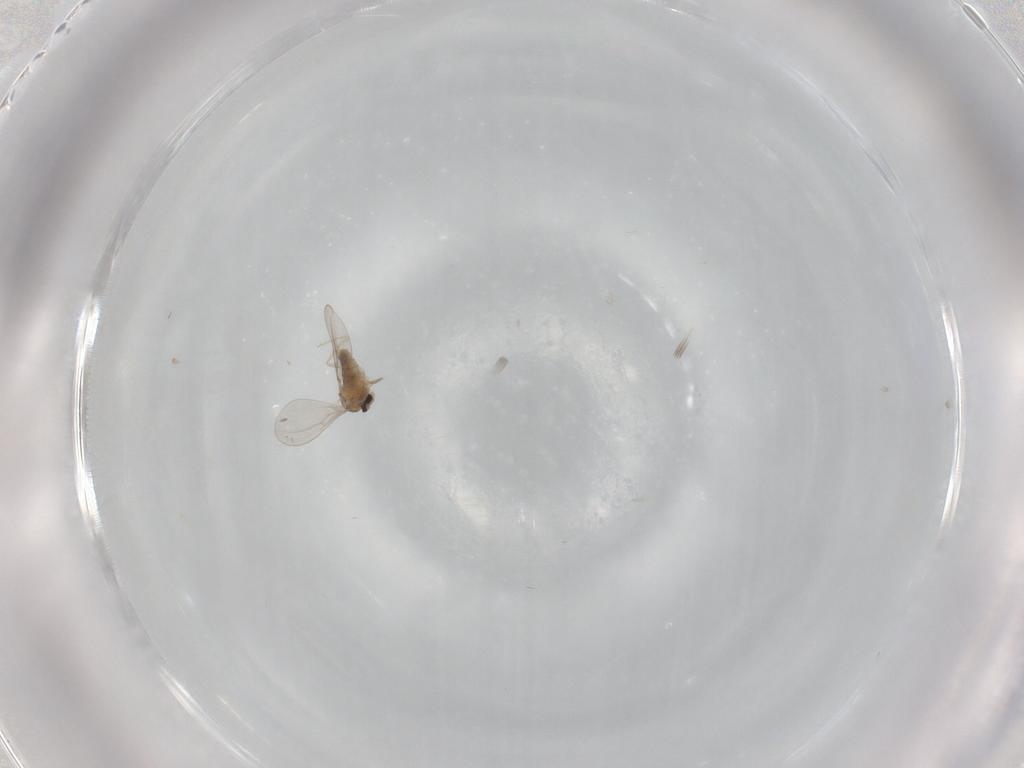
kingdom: Animalia
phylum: Arthropoda
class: Insecta
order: Diptera
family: Cecidomyiidae
